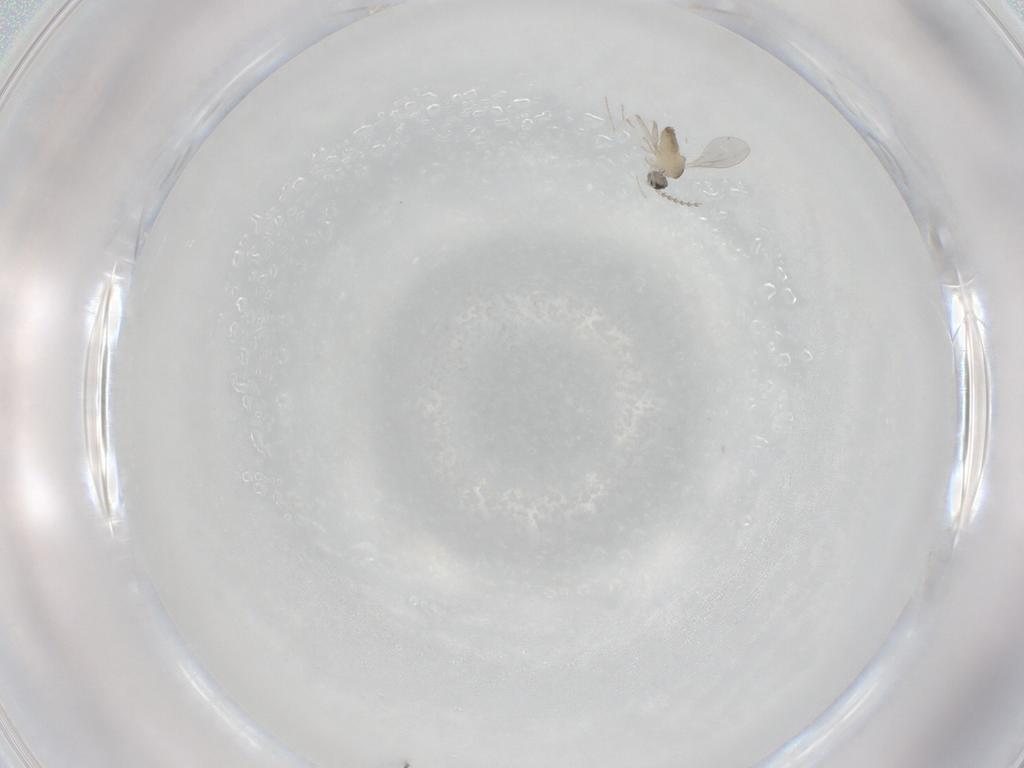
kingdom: Animalia
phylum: Arthropoda
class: Insecta
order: Diptera
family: Cecidomyiidae
